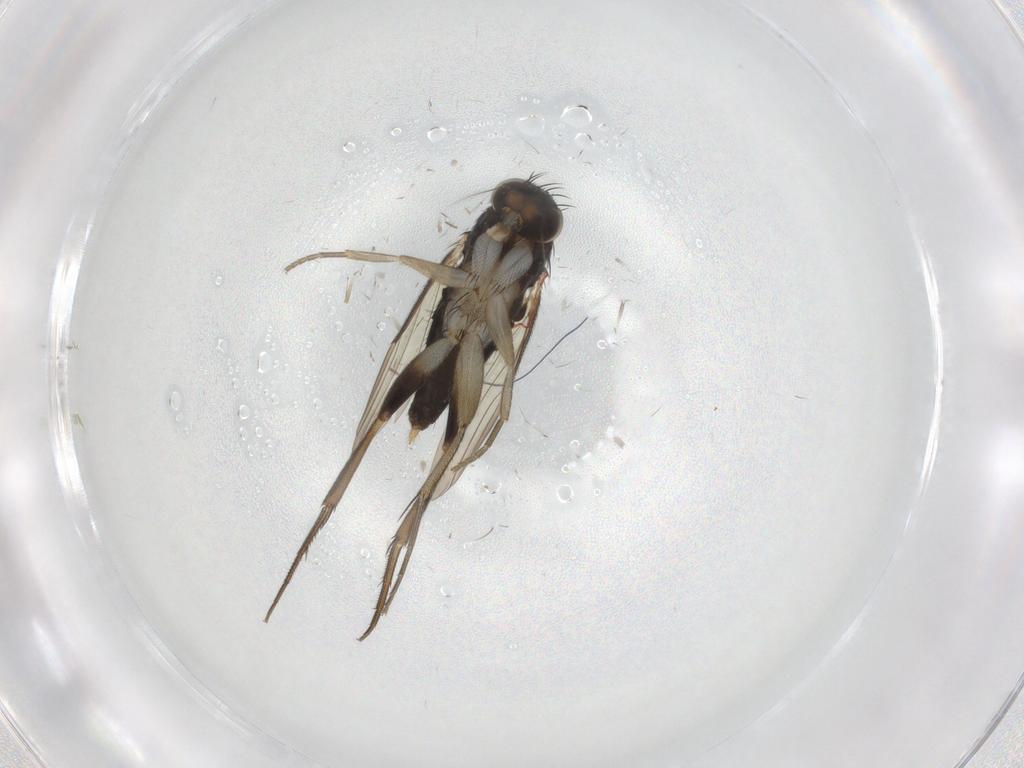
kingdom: Animalia
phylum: Arthropoda
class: Insecta
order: Diptera
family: Phoridae
